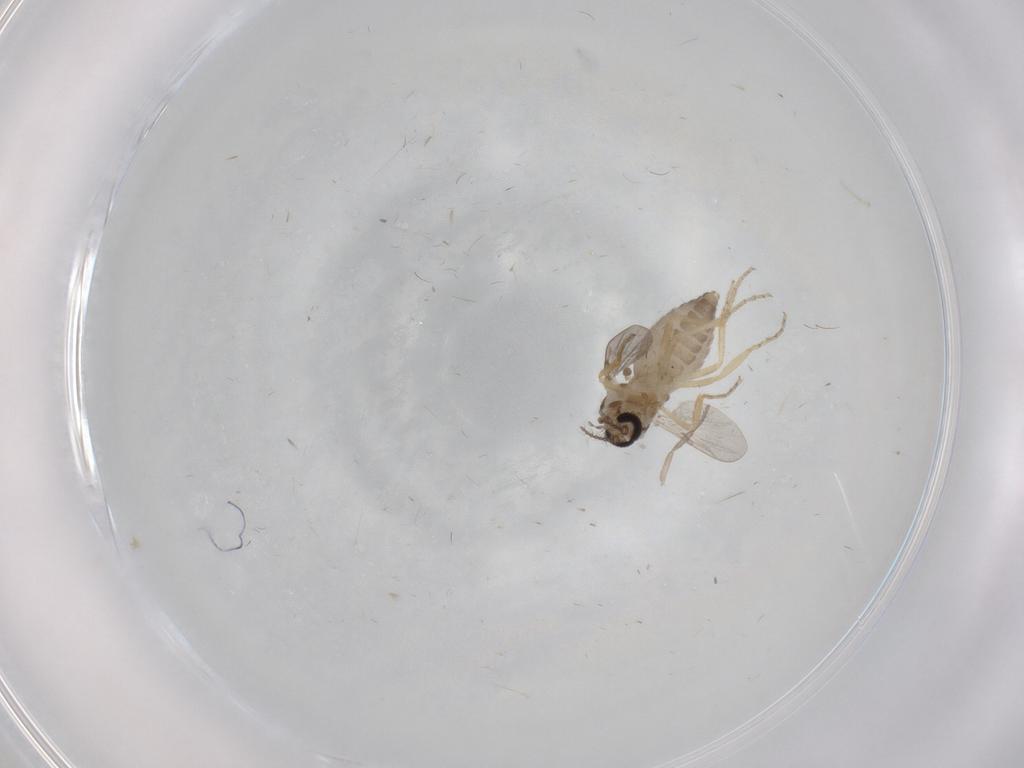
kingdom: Animalia
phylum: Arthropoda
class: Insecta
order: Diptera
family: Ceratopogonidae
